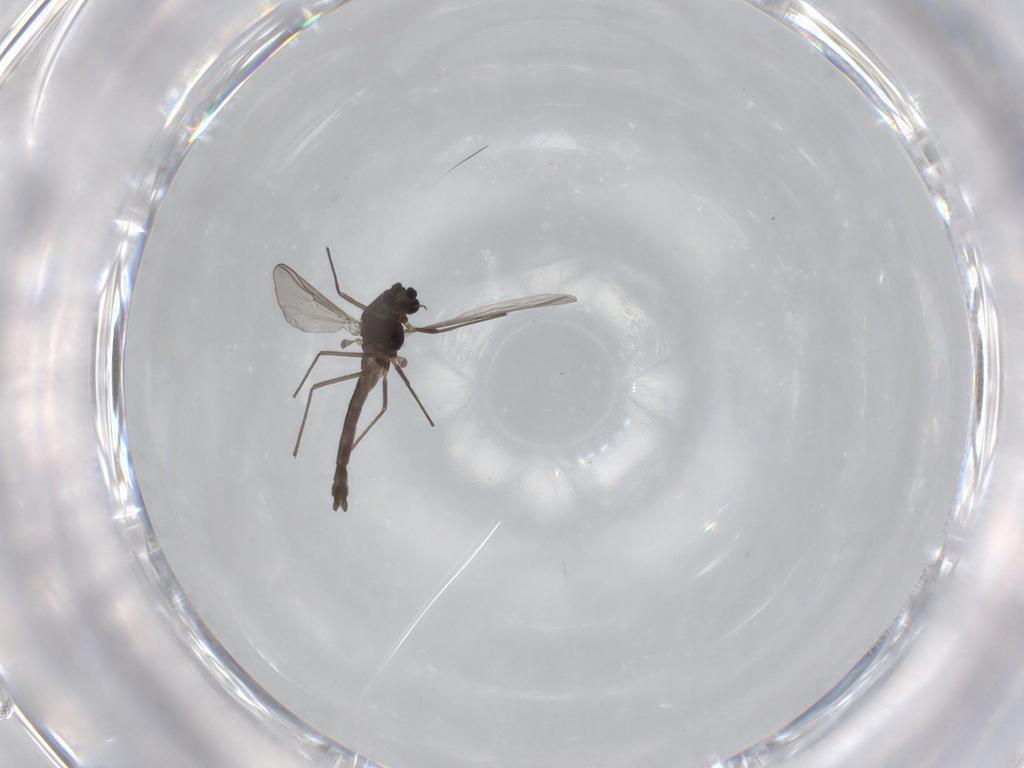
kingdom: Animalia
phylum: Arthropoda
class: Insecta
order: Diptera
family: Chironomidae
